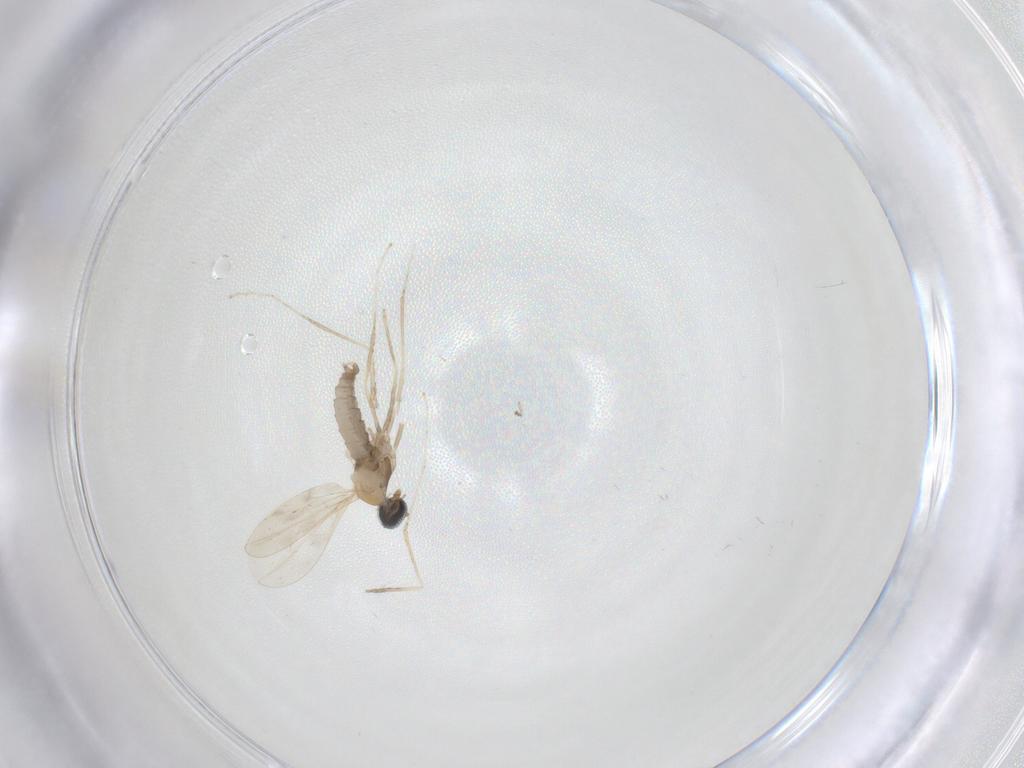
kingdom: Animalia
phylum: Arthropoda
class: Insecta
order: Diptera
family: Cecidomyiidae
